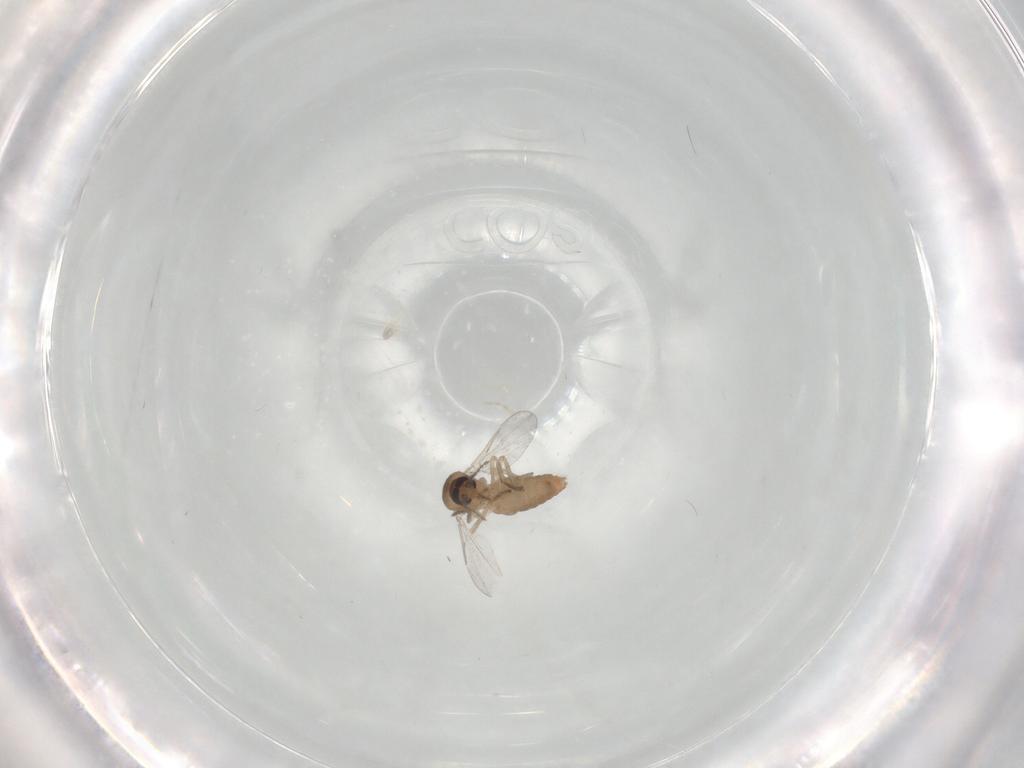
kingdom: Animalia
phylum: Arthropoda
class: Insecta
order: Diptera
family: Ceratopogonidae
